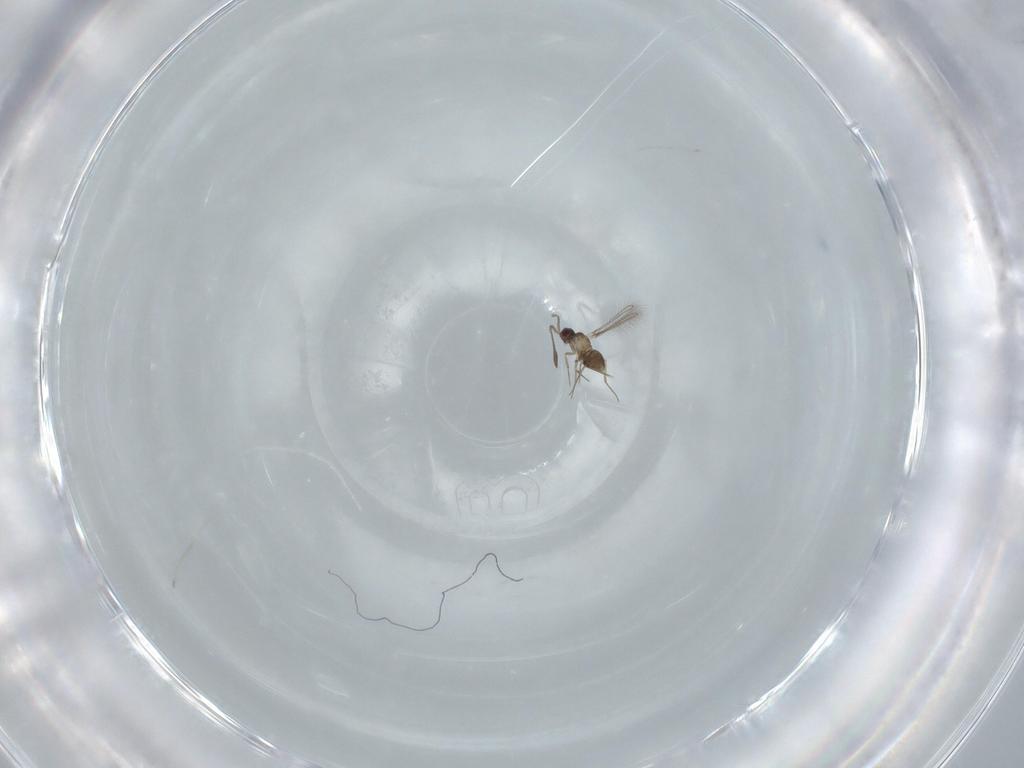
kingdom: Animalia
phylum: Arthropoda
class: Insecta
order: Hymenoptera
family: Mymaridae
